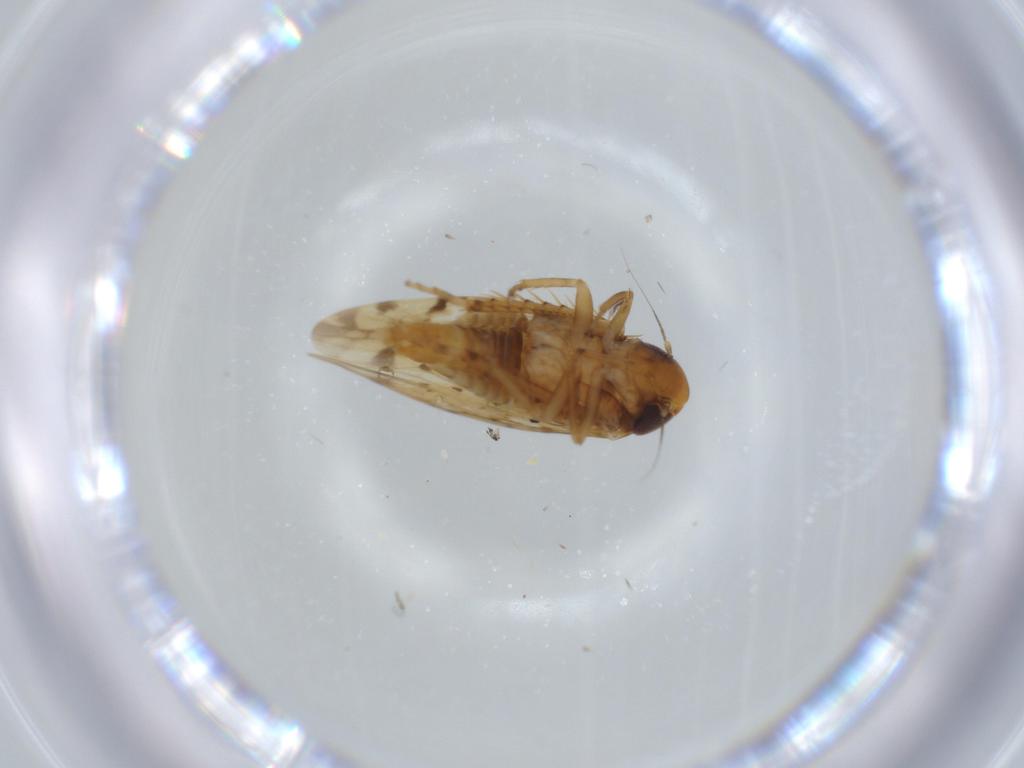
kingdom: Animalia
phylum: Arthropoda
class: Insecta
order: Hemiptera
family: Cicadellidae
